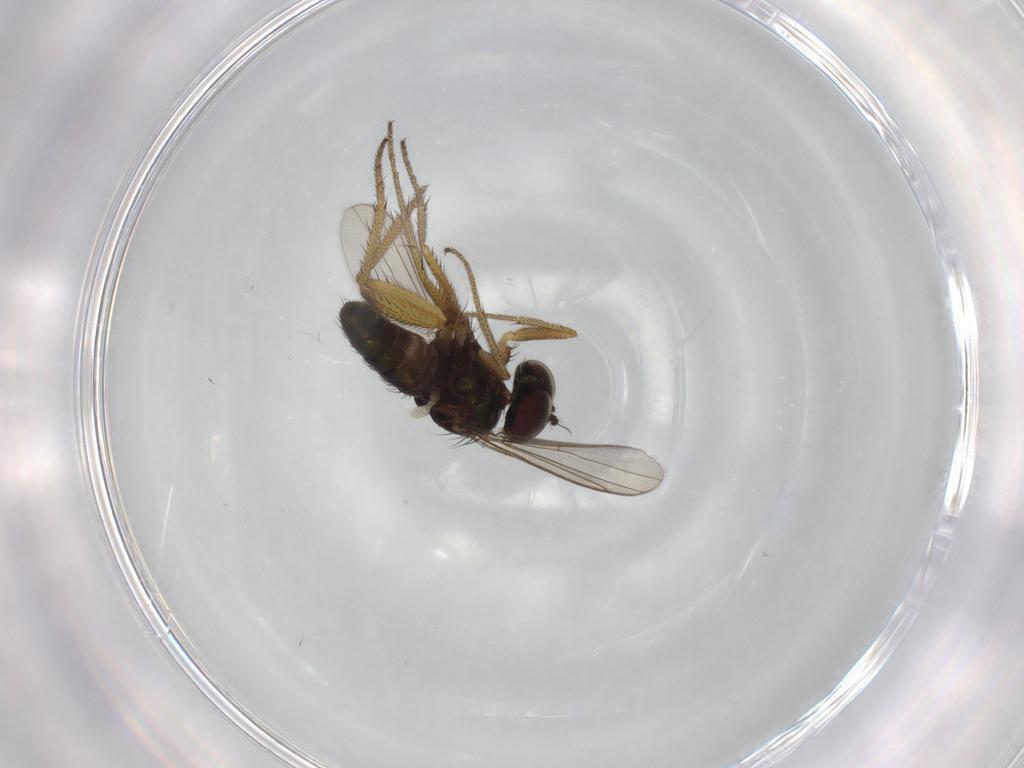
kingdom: Animalia
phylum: Arthropoda
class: Insecta
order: Diptera
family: Dolichopodidae
